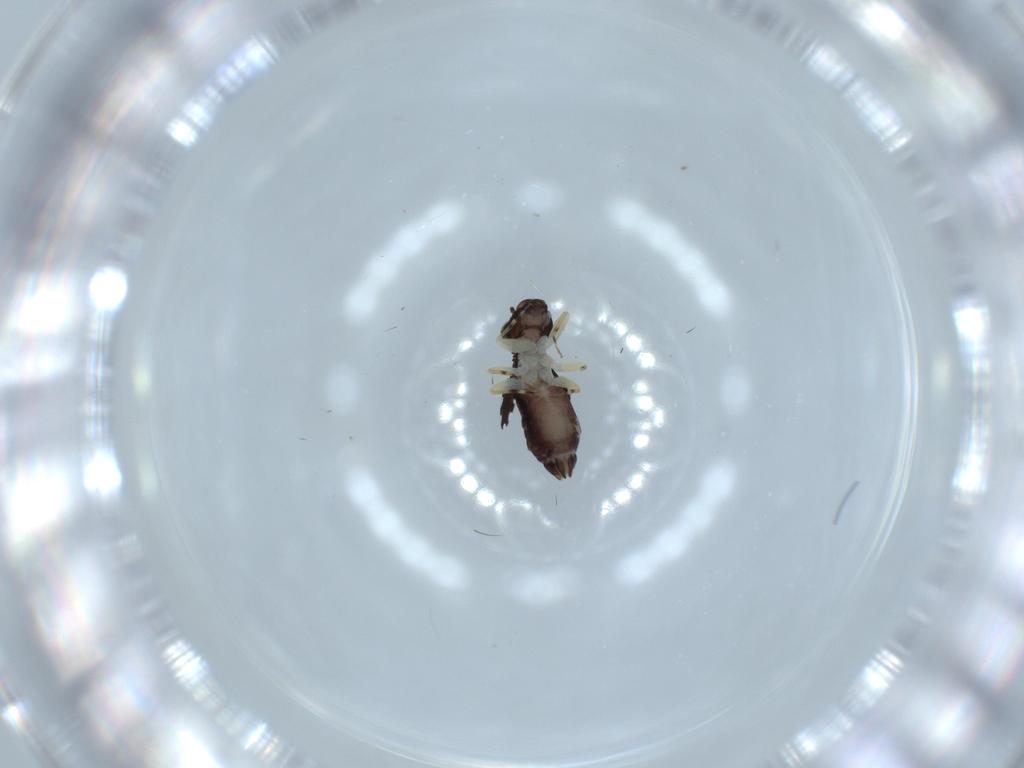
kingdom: Animalia
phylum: Arthropoda
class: Insecta
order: Psocodea
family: Psoquillidae
